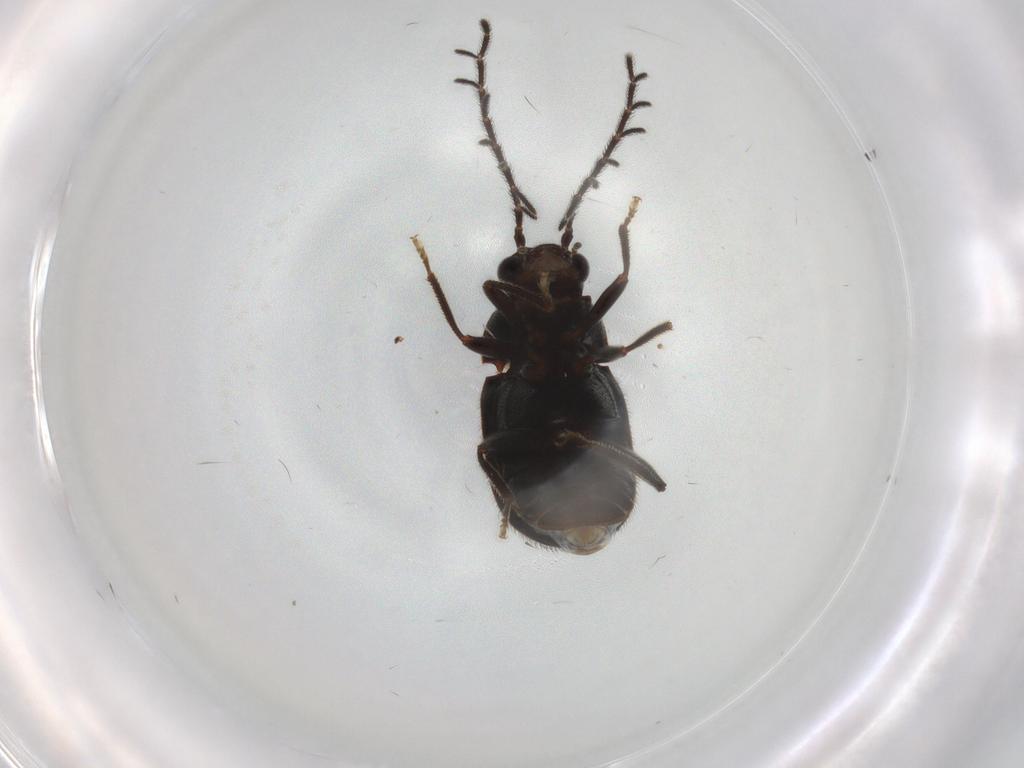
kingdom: Animalia
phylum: Arthropoda
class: Insecta
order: Coleoptera
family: Ptilodactylidae
